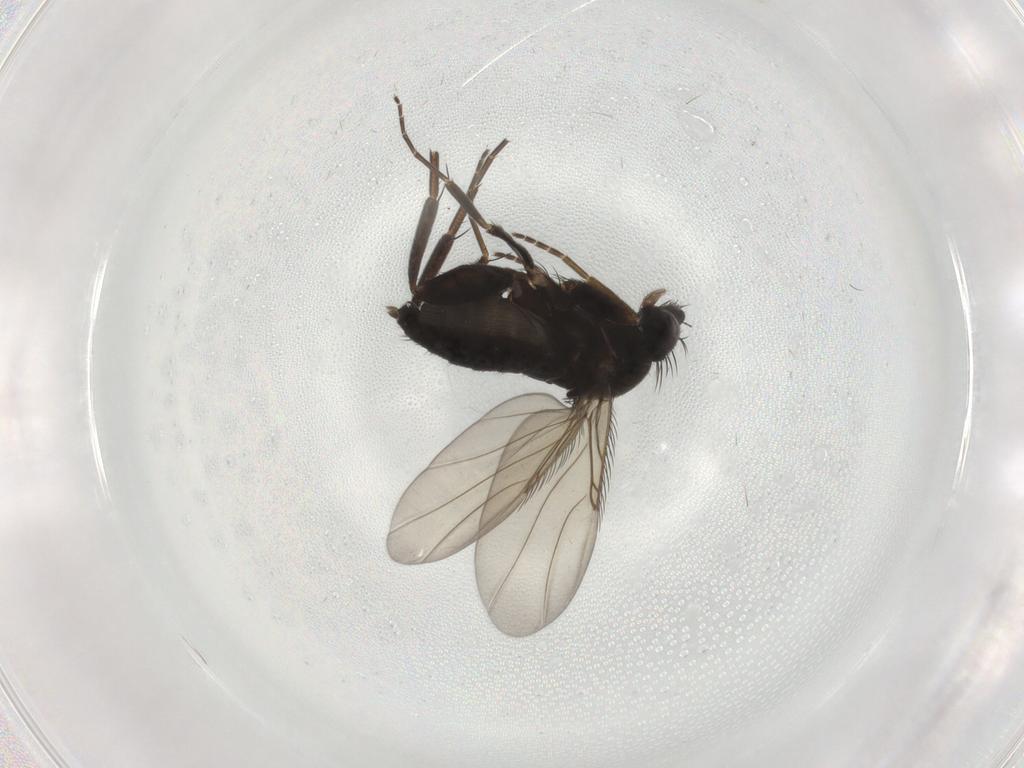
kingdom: Animalia
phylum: Arthropoda
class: Insecta
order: Diptera
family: Phoridae
